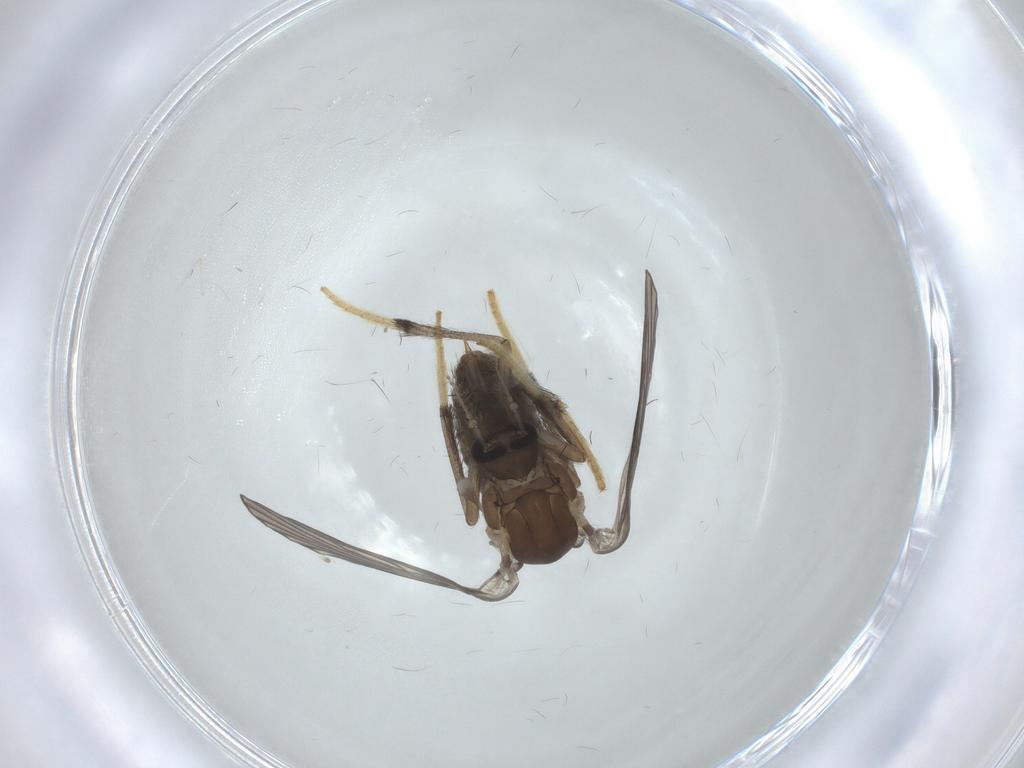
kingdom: Animalia
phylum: Arthropoda
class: Insecta
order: Diptera
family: Psychodidae
